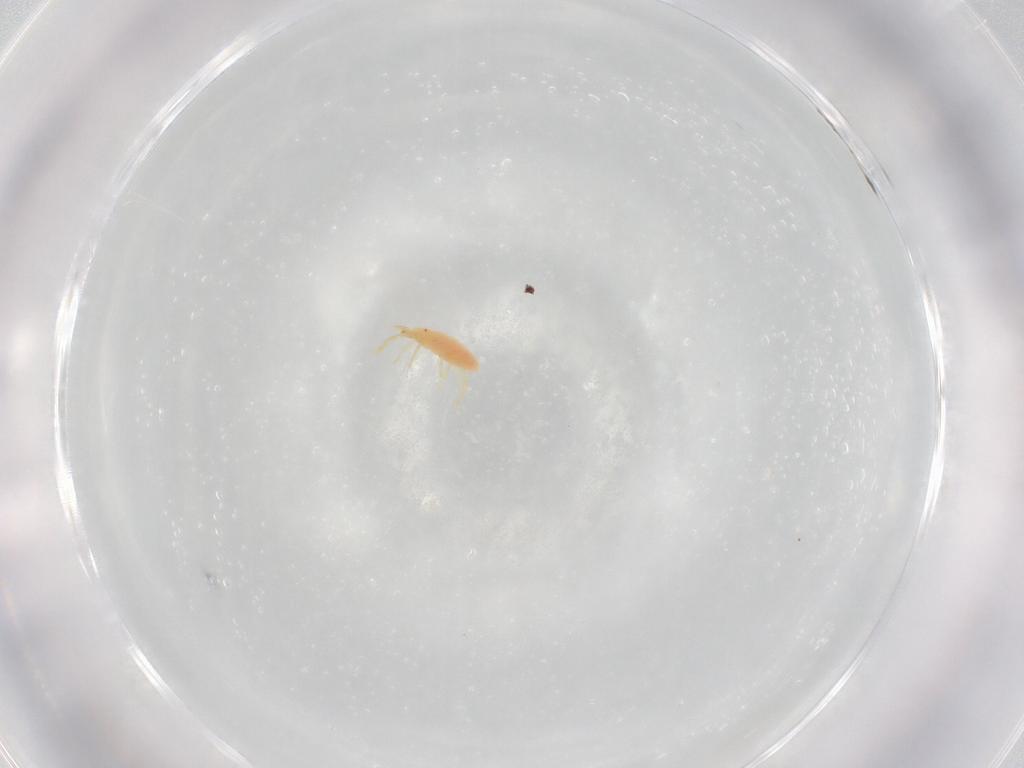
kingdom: Animalia
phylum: Arthropoda
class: Arachnida
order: Trombidiformes
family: Erythraeidae
